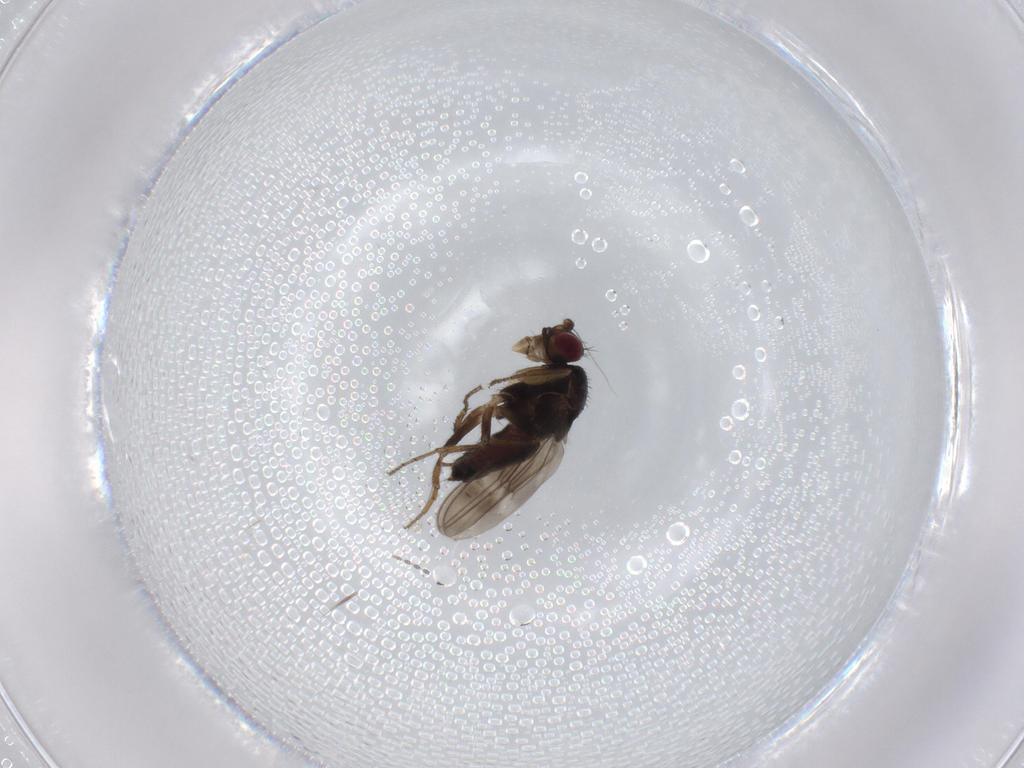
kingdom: Animalia
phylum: Arthropoda
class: Insecta
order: Diptera
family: Sphaeroceridae
